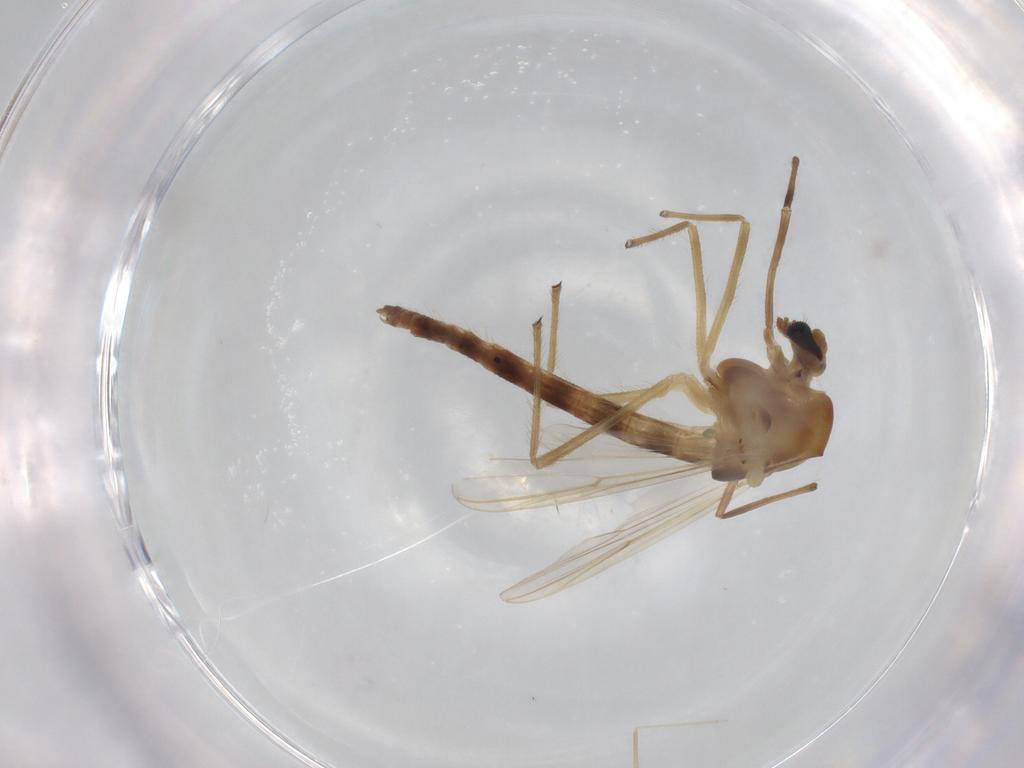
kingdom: Animalia
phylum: Arthropoda
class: Insecta
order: Diptera
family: Chironomidae
